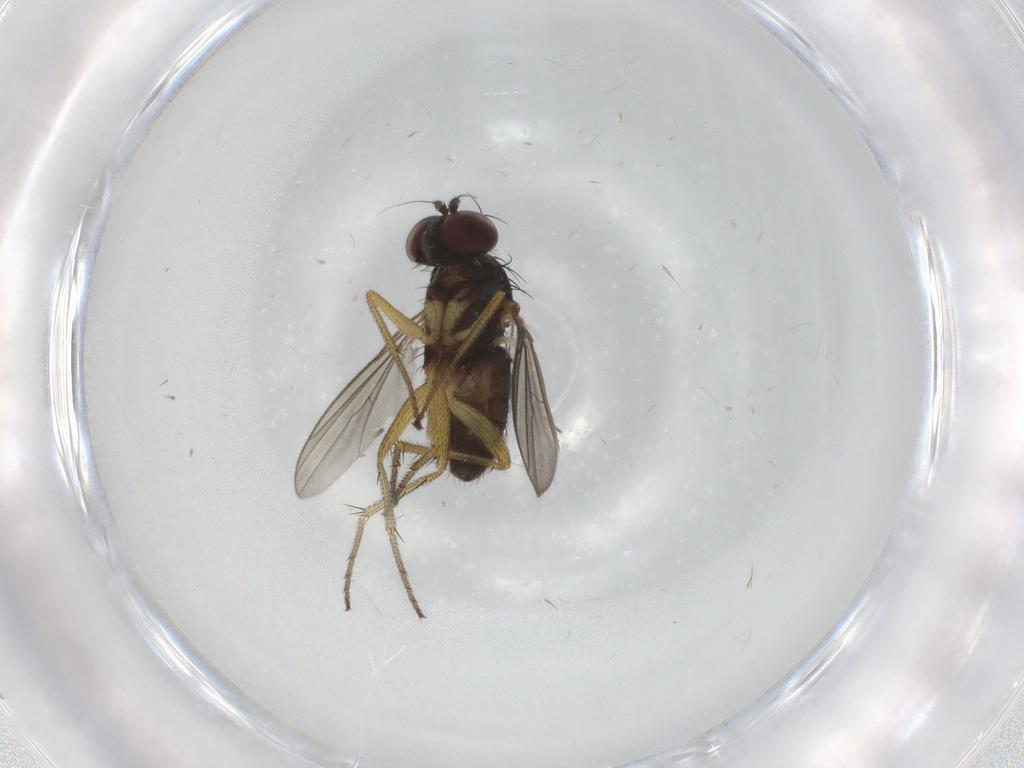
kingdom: Animalia
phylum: Arthropoda
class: Insecta
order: Diptera
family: Dolichopodidae
